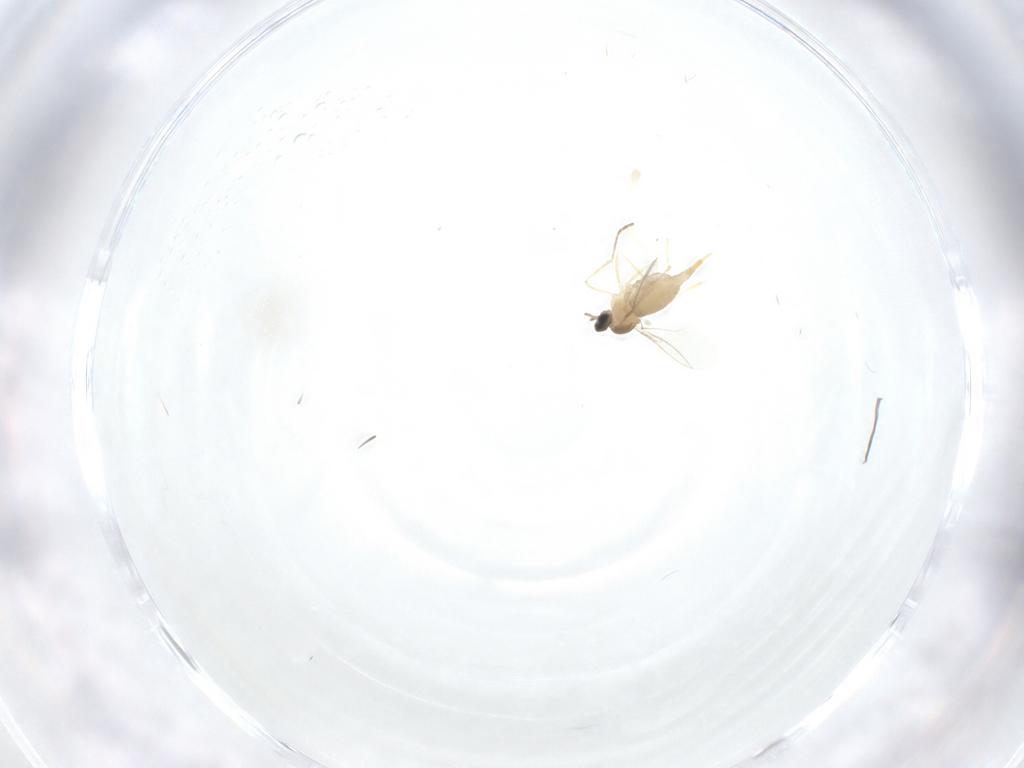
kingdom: Animalia
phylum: Arthropoda
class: Insecta
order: Diptera
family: Cecidomyiidae
